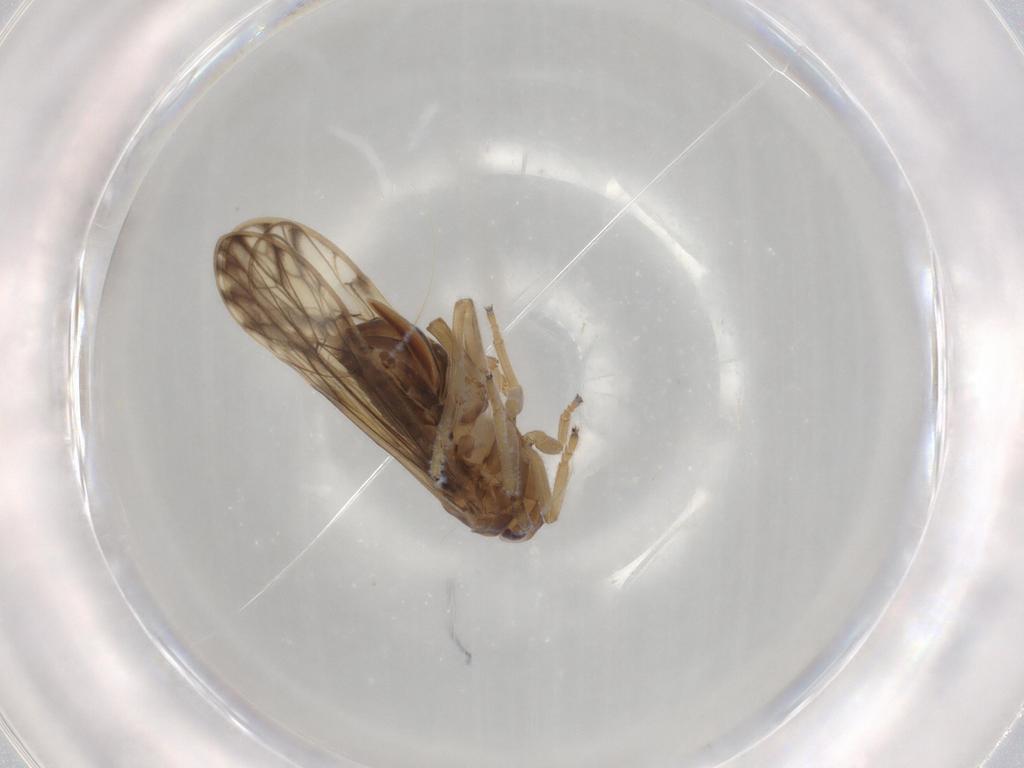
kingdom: Animalia
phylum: Arthropoda
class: Insecta
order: Hemiptera
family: Delphacidae
